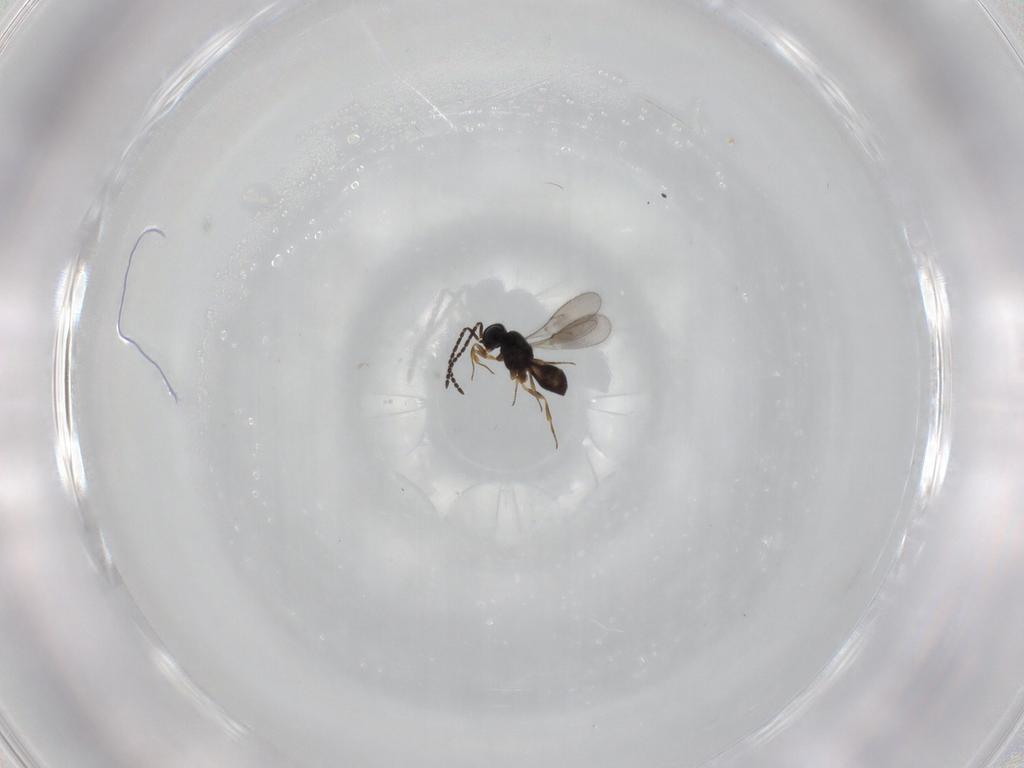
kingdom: Animalia
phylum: Arthropoda
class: Insecta
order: Hymenoptera
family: Scelionidae
